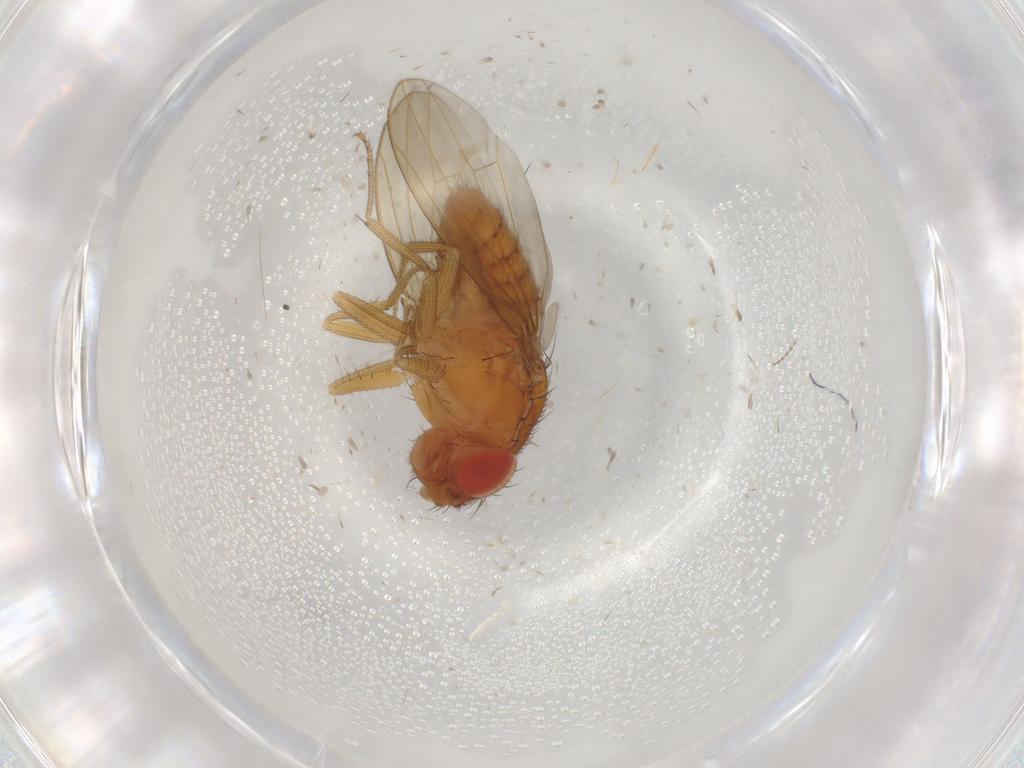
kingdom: Animalia
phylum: Arthropoda
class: Insecta
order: Diptera
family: Drosophilidae
